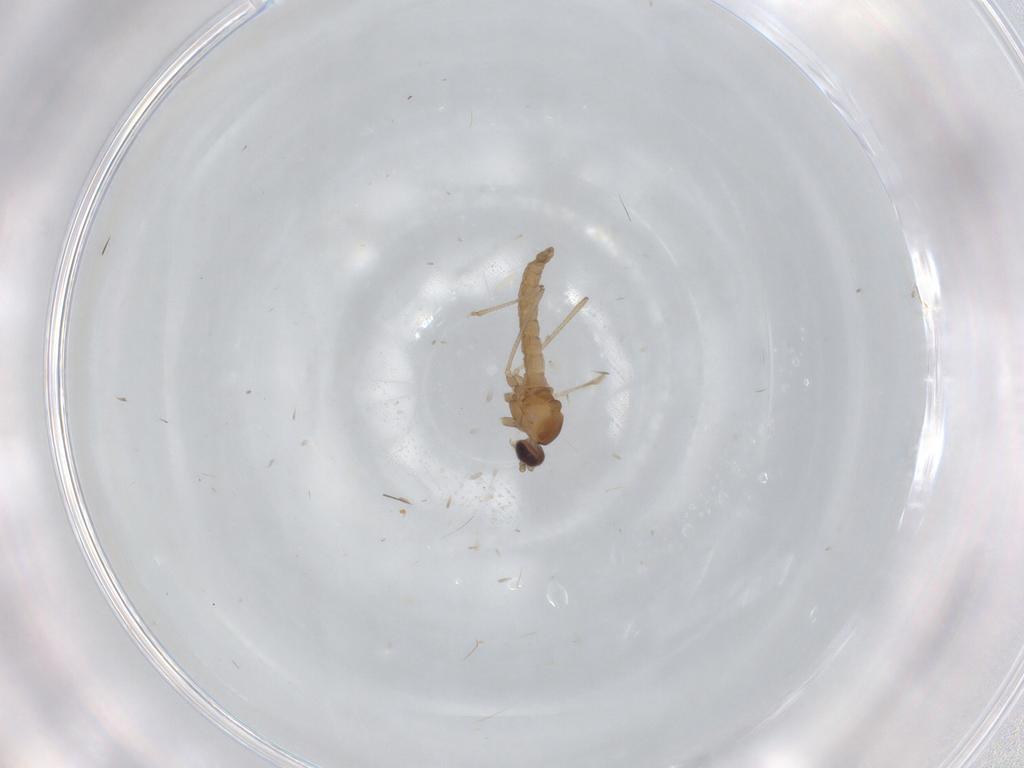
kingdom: Animalia
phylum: Arthropoda
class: Insecta
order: Diptera
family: Cecidomyiidae
